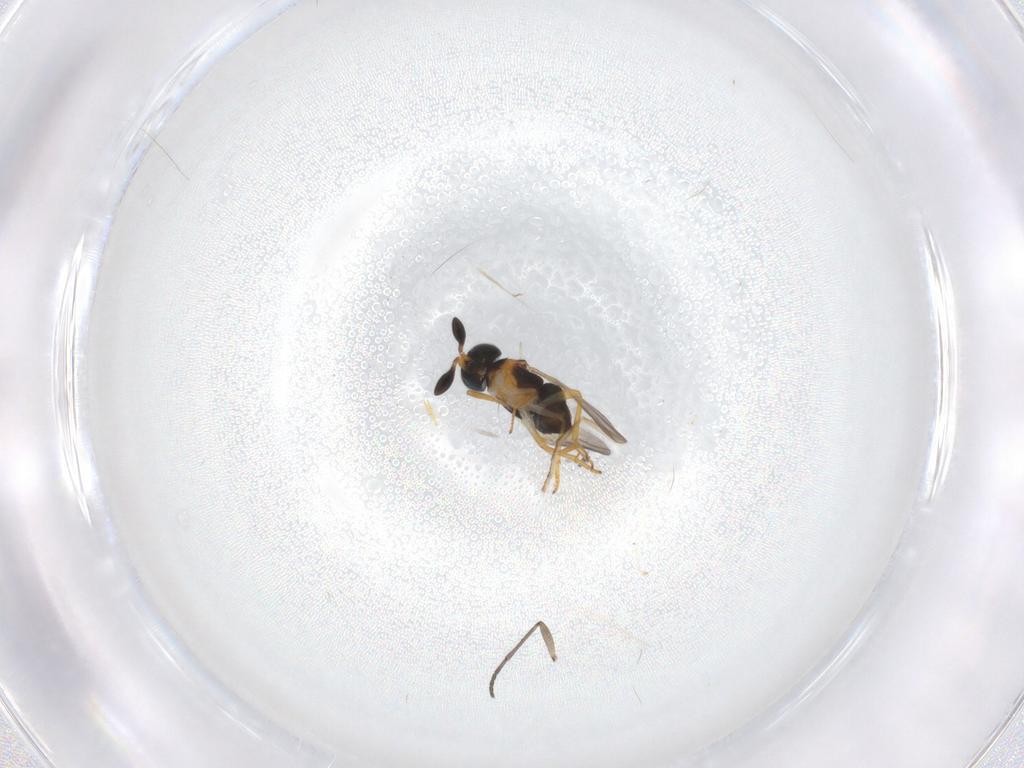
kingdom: Animalia
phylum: Arthropoda
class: Insecta
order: Hymenoptera
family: Encyrtidae
